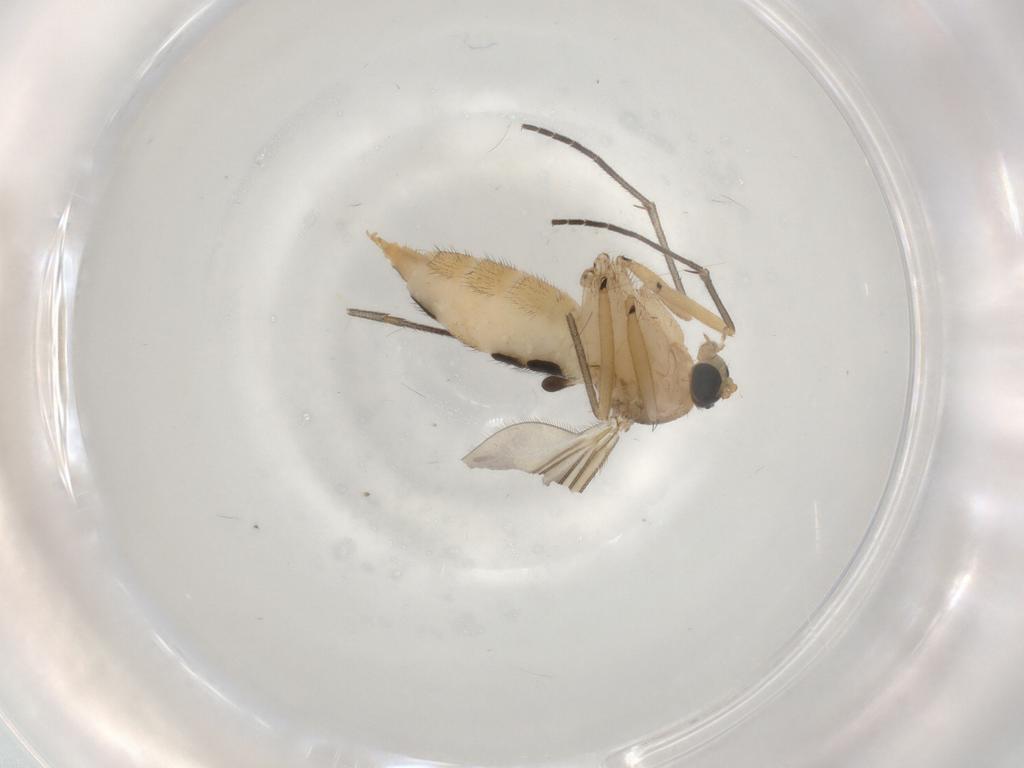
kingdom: Animalia
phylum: Arthropoda
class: Insecta
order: Diptera
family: Sciaridae
